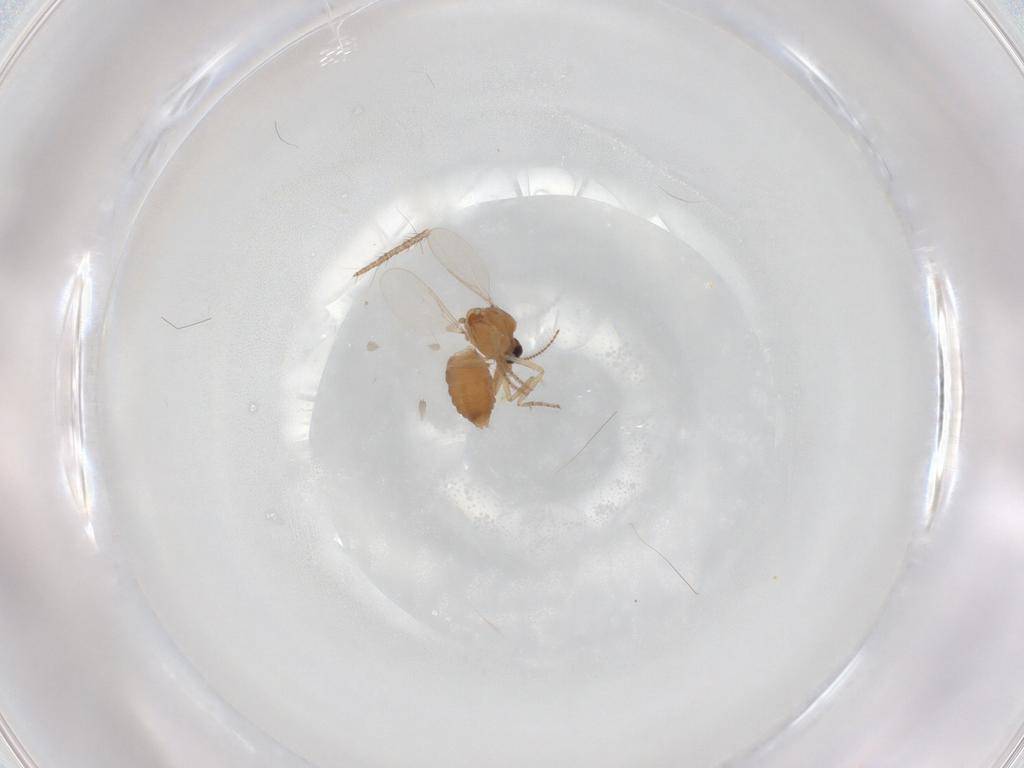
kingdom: Animalia
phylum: Arthropoda
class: Insecta
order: Diptera
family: Ceratopogonidae
